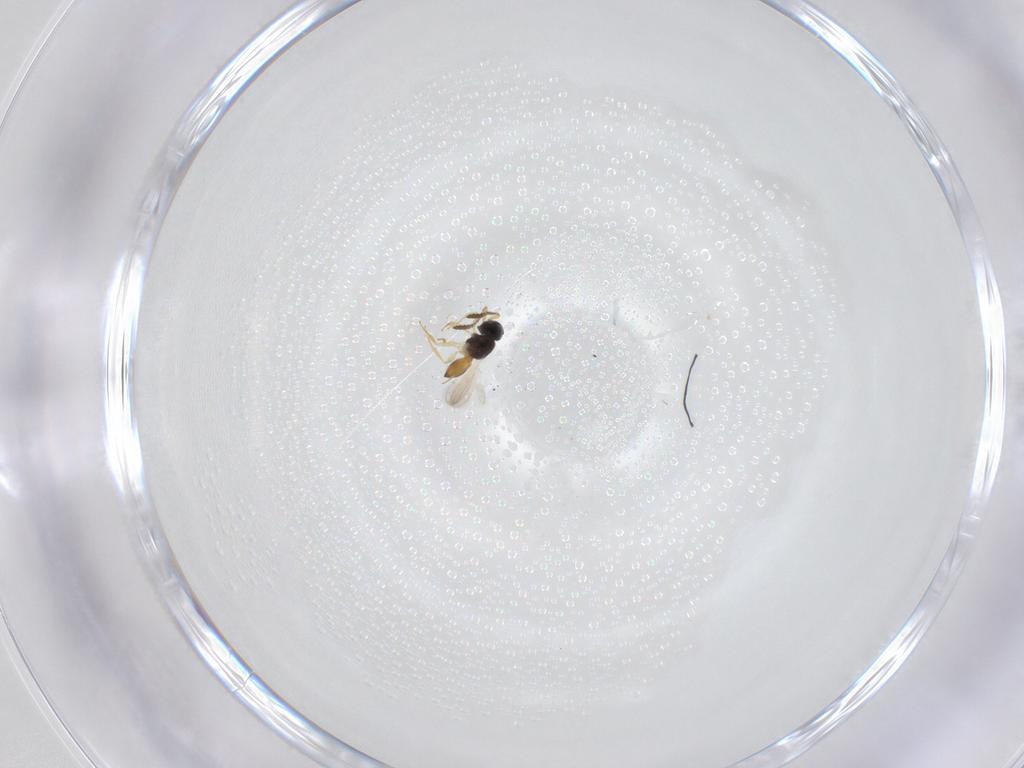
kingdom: Animalia
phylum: Arthropoda
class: Insecta
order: Hymenoptera
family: Scelionidae
